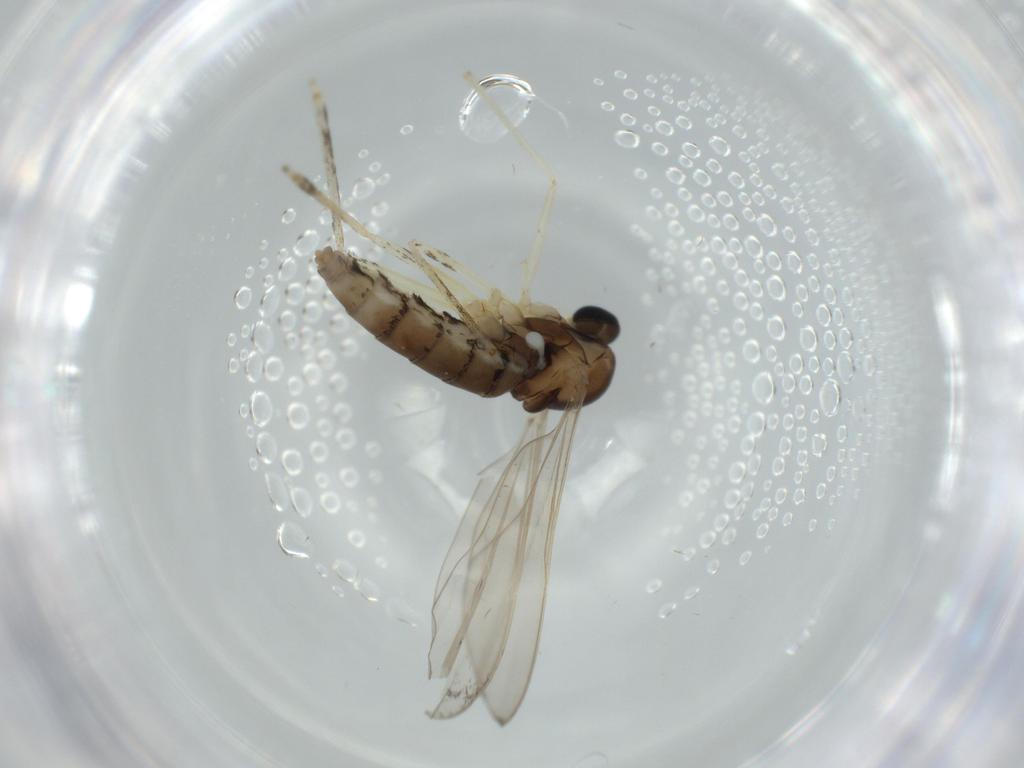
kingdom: Animalia
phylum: Arthropoda
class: Insecta
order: Diptera
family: Cecidomyiidae
